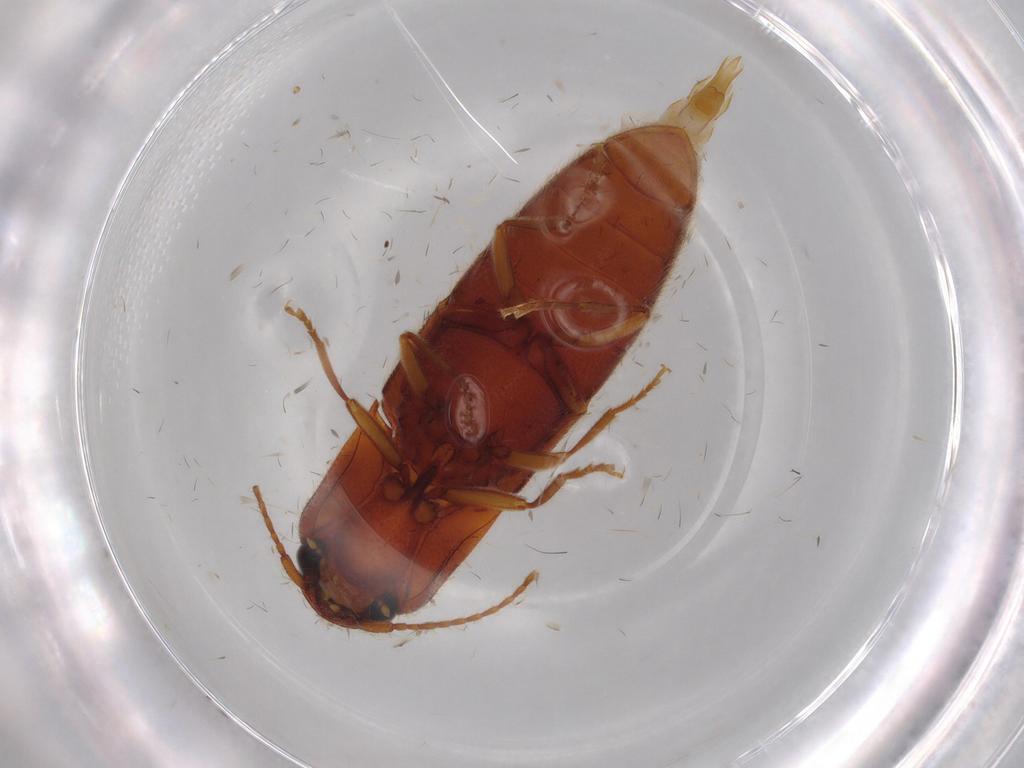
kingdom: Animalia
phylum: Arthropoda
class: Insecta
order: Coleoptera
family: Elateridae
